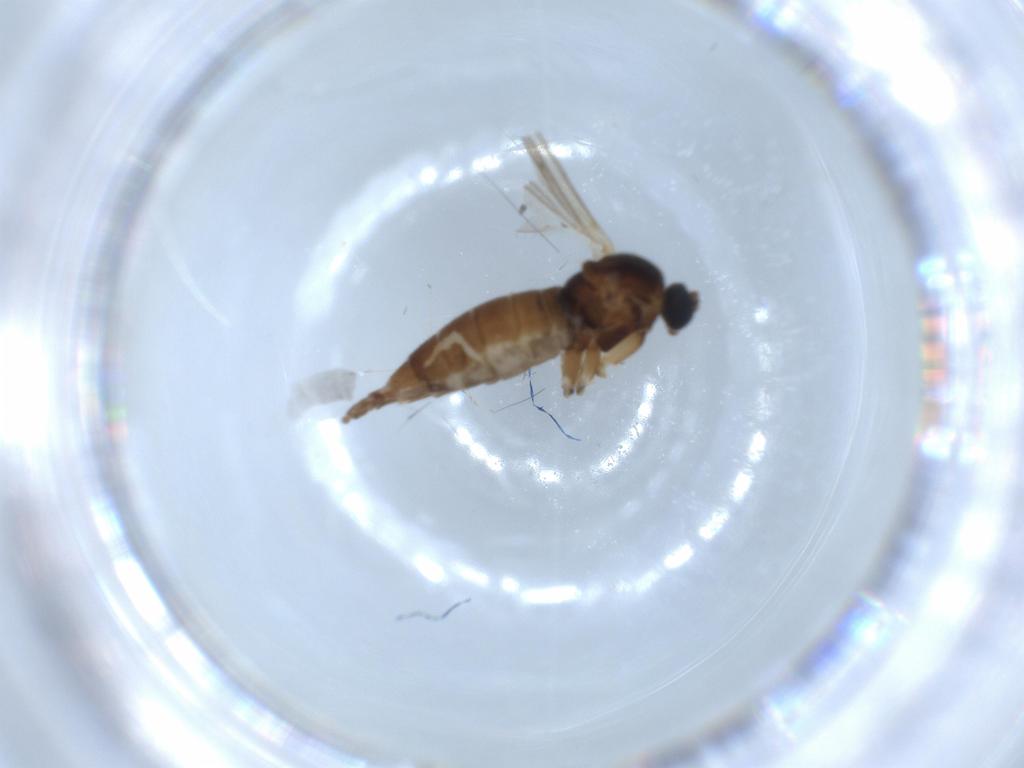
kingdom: Animalia
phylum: Arthropoda
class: Insecta
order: Diptera
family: Sciaridae
